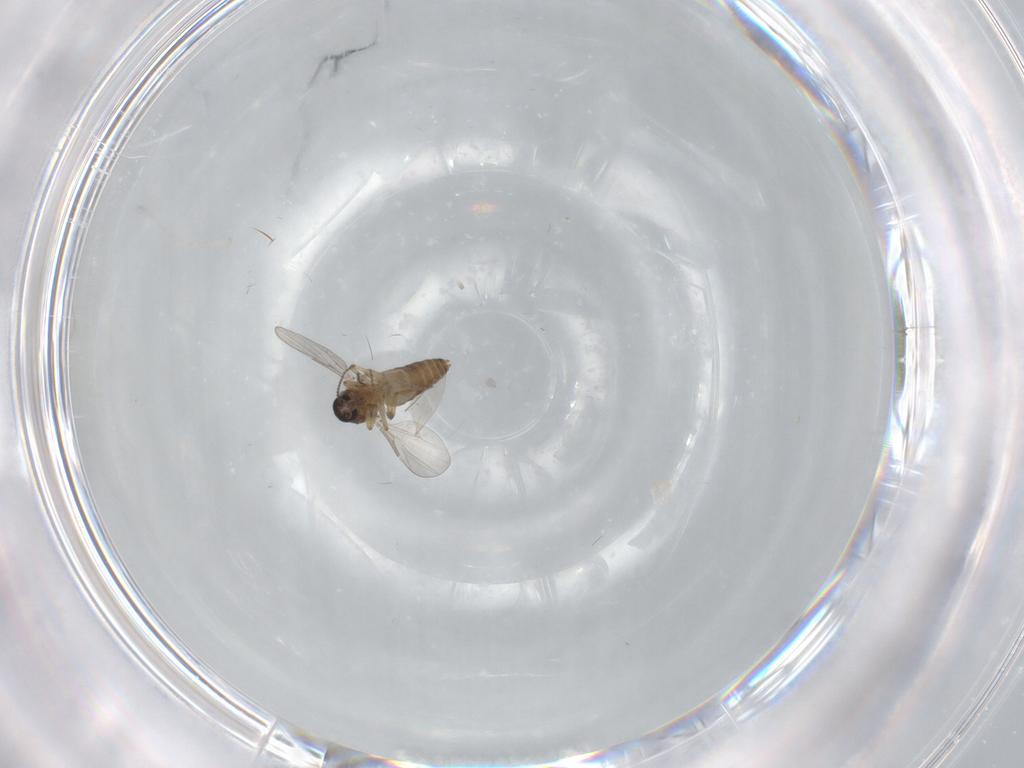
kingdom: Animalia
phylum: Arthropoda
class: Insecta
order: Diptera
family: Ceratopogonidae
